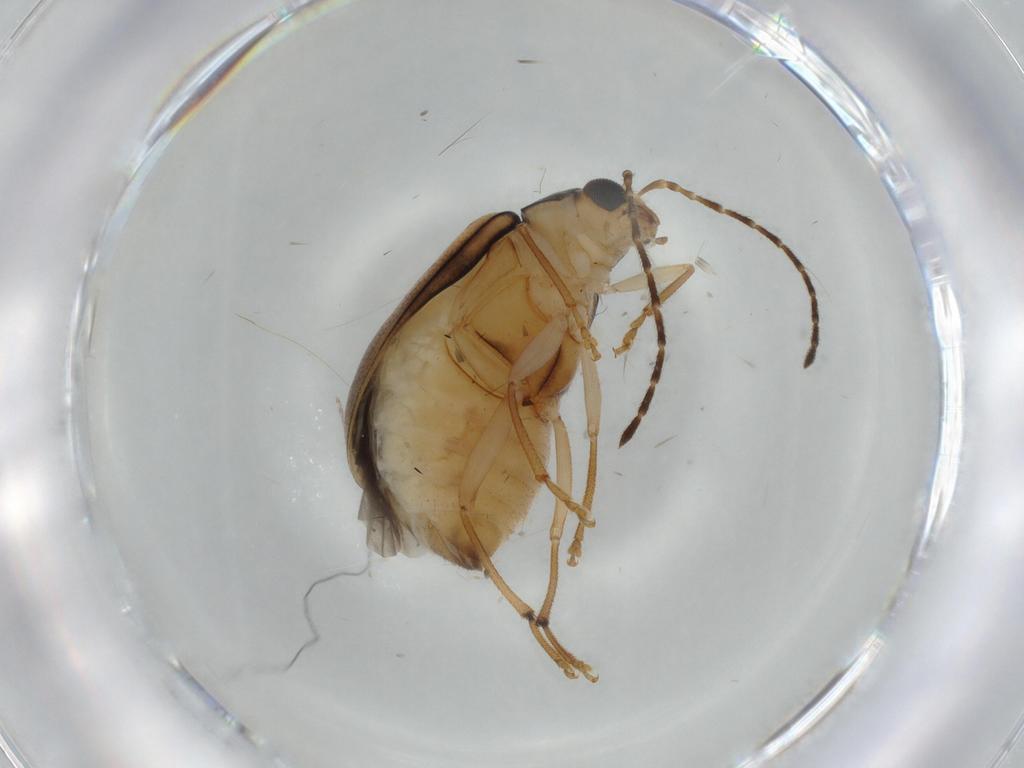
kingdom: Animalia
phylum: Arthropoda
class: Insecta
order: Coleoptera
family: Chrysomelidae
